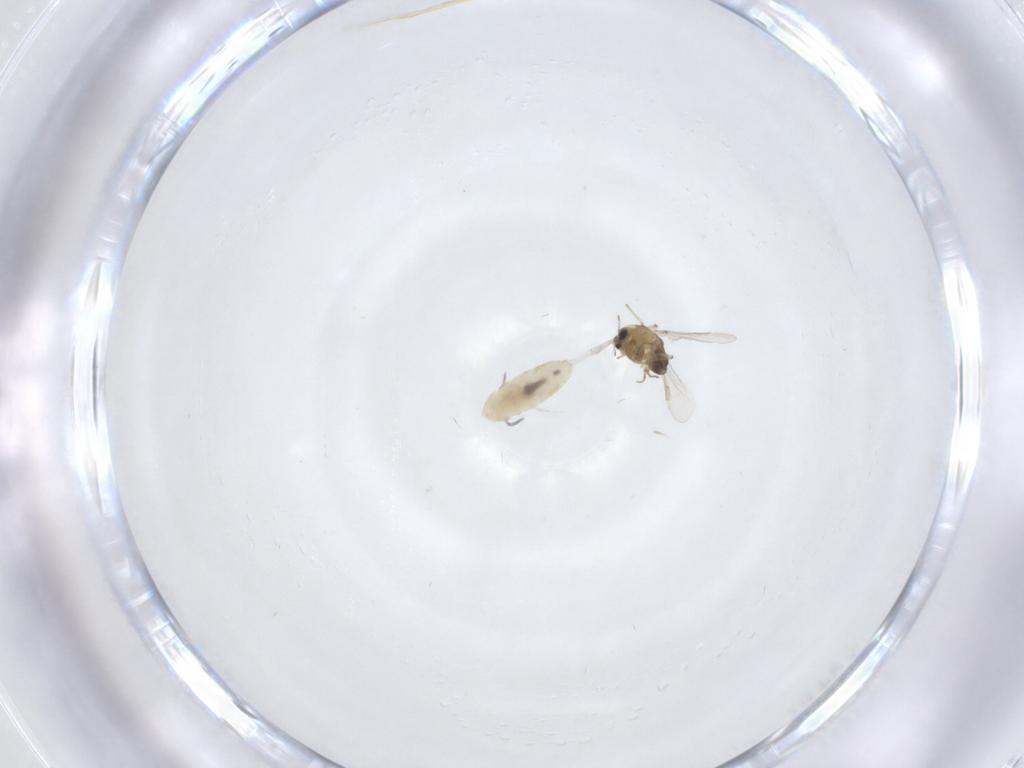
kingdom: Animalia
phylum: Arthropoda
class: Insecta
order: Diptera
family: Chironomidae
